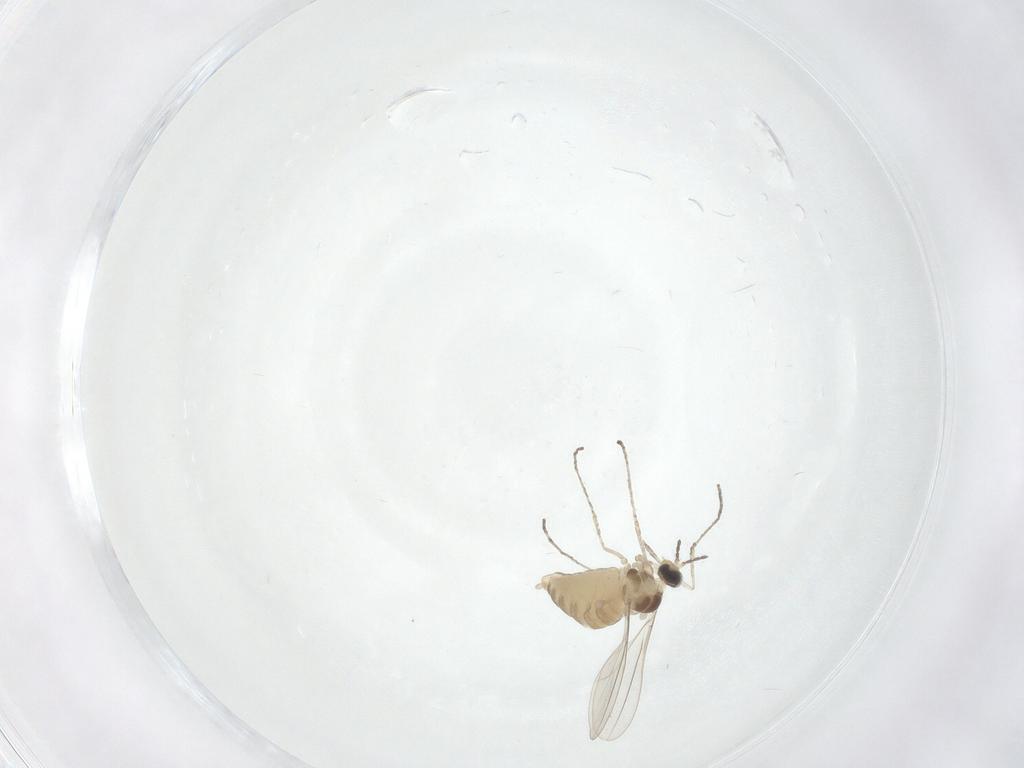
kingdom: Animalia
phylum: Arthropoda
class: Insecta
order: Diptera
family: Cecidomyiidae
